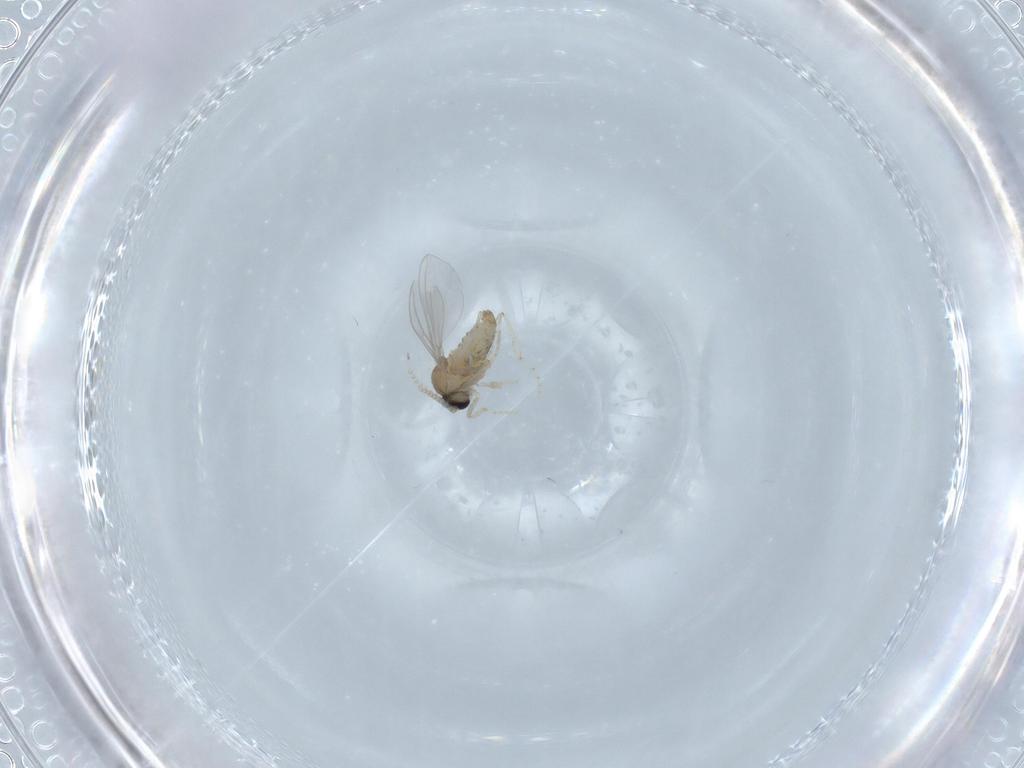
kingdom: Animalia
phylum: Arthropoda
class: Insecta
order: Diptera
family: Cecidomyiidae
